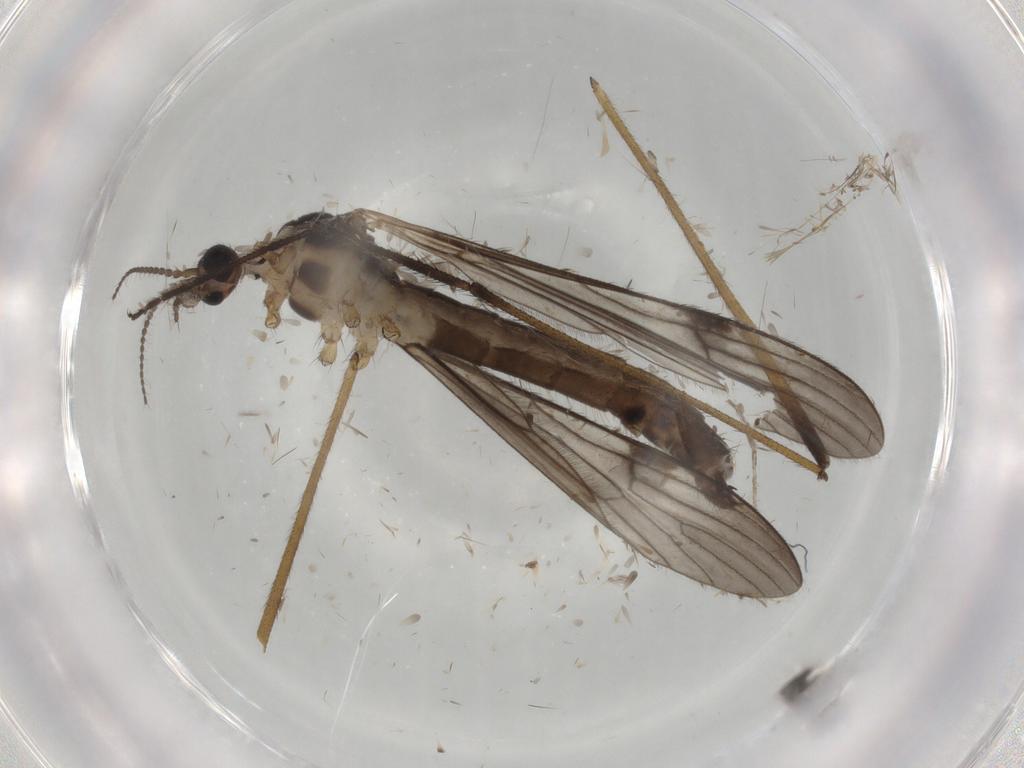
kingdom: Animalia
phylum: Arthropoda
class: Insecta
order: Diptera
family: Limoniidae
